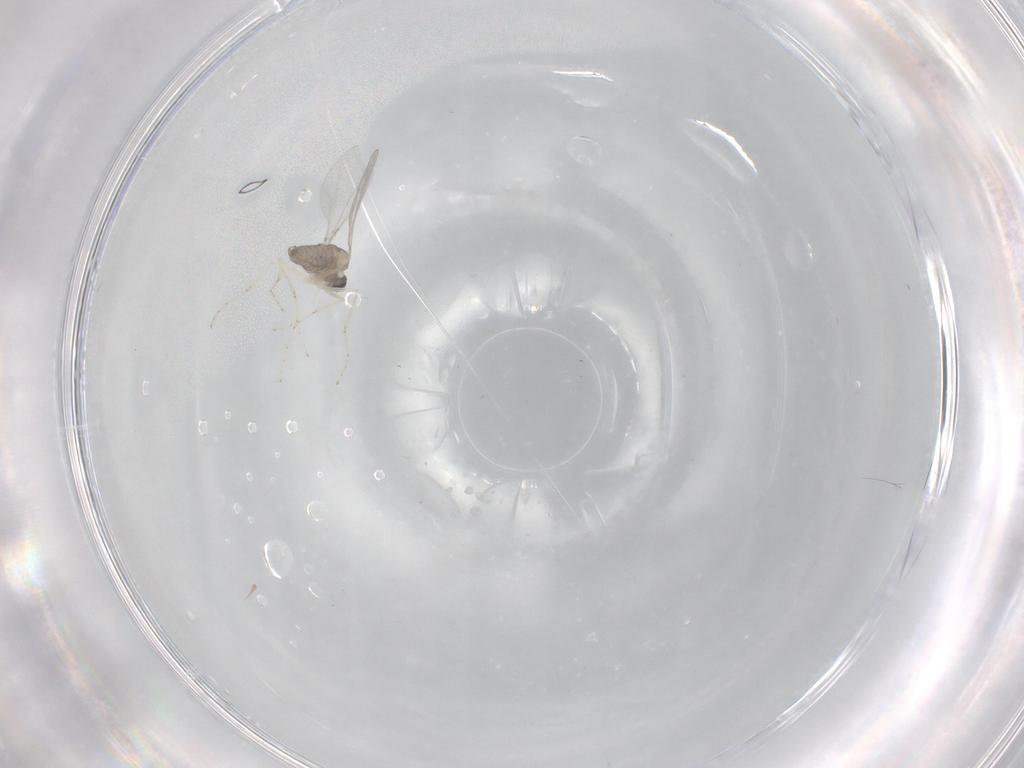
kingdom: Animalia
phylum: Arthropoda
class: Insecta
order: Diptera
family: Cecidomyiidae
